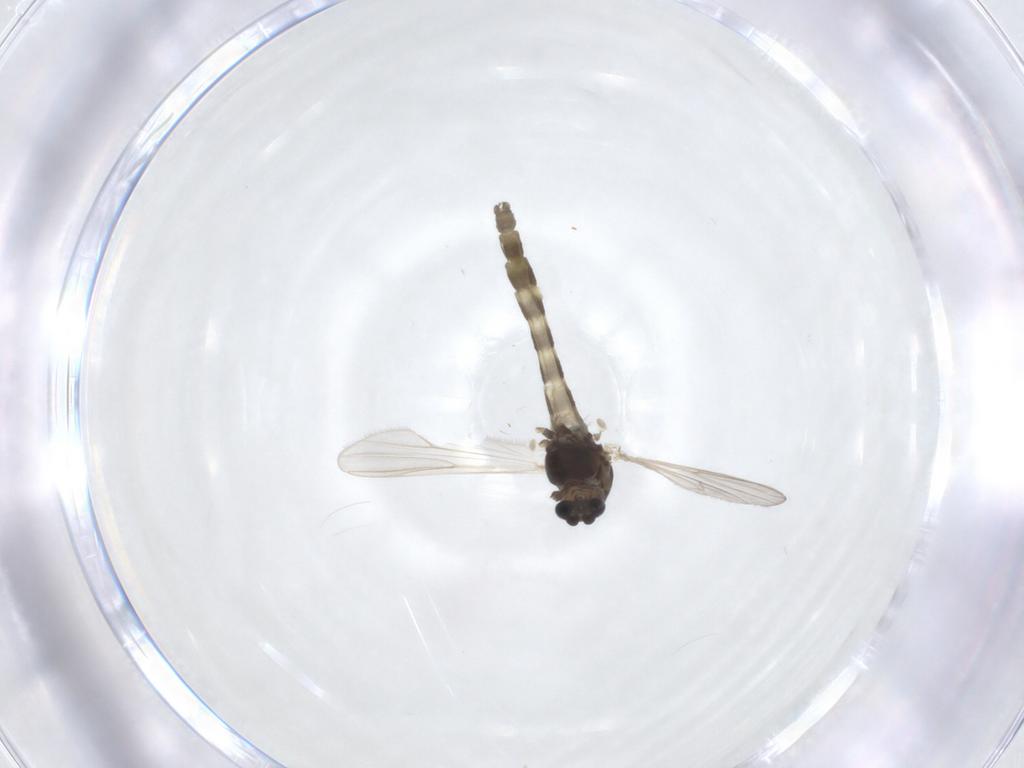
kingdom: Animalia
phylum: Arthropoda
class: Insecta
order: Diptera
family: Chironomidae
